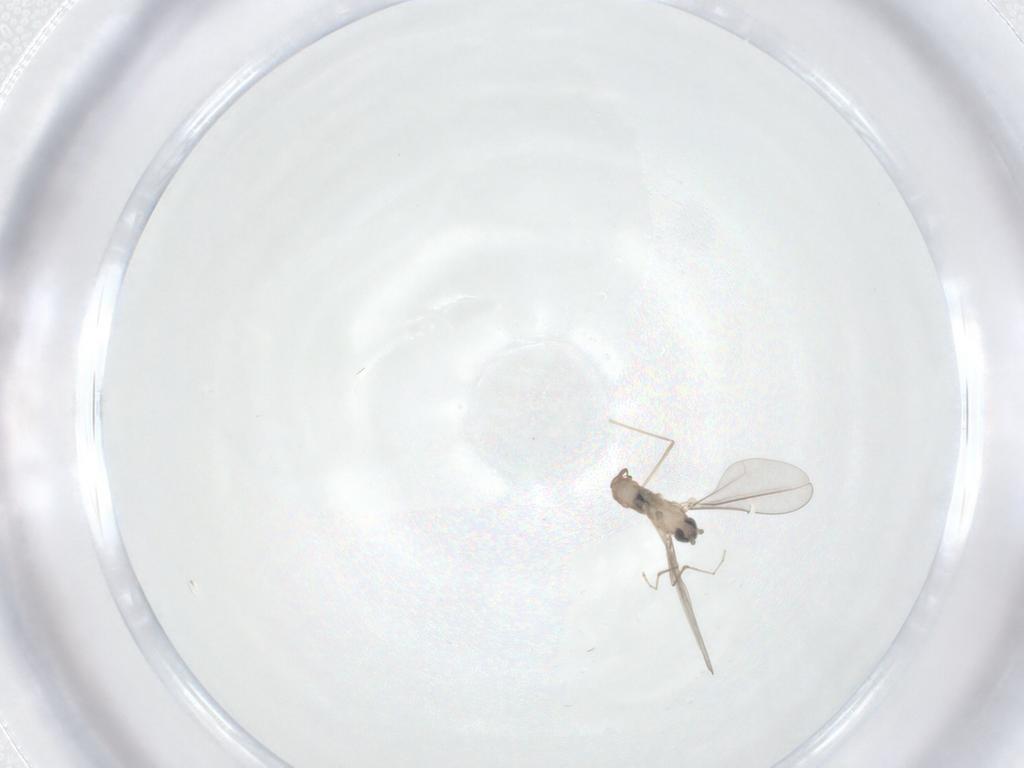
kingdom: Animalia
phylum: Arthropoda
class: Insecta
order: Diptera
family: Cecidomyiidae
